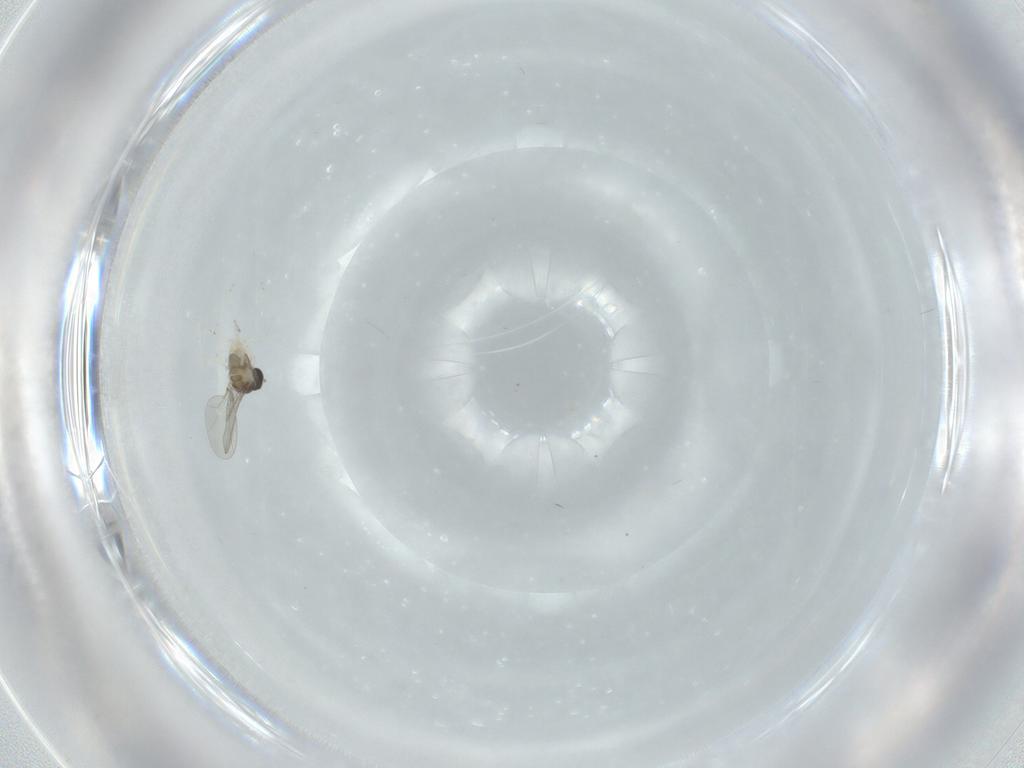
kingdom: Animalia
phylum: Arthropoda
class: Insecta
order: Diptera
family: Cecidomyiidae
